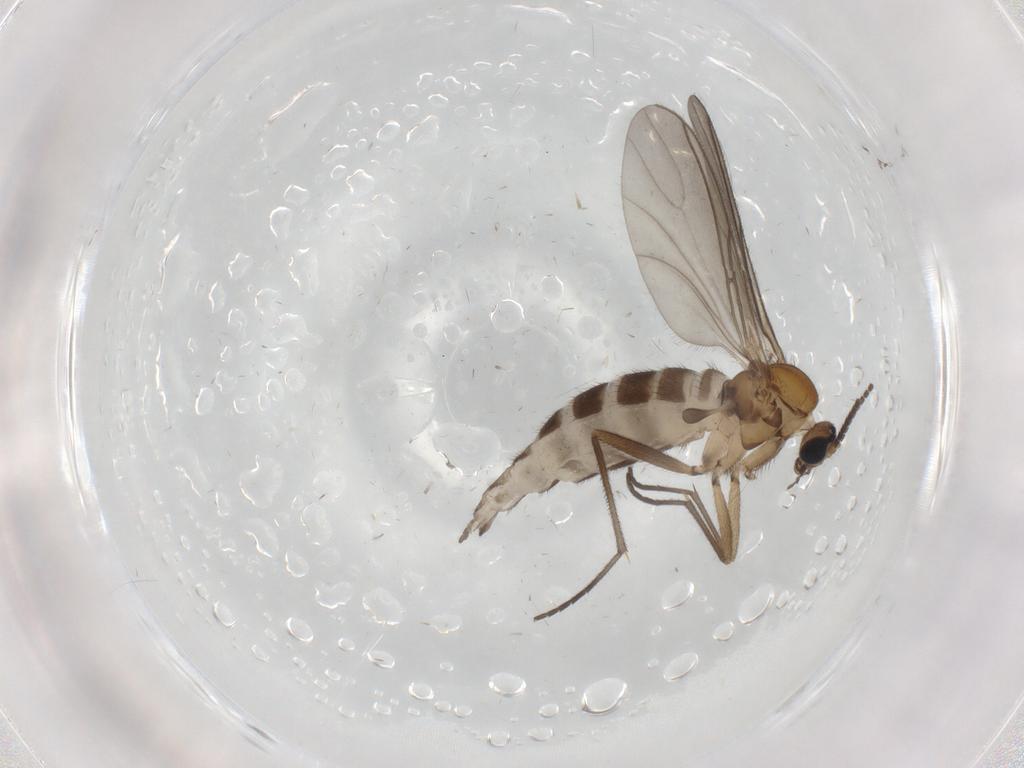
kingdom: Animalia
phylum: Arthropoda
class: Insecta
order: Diptera
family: Sciaridae
